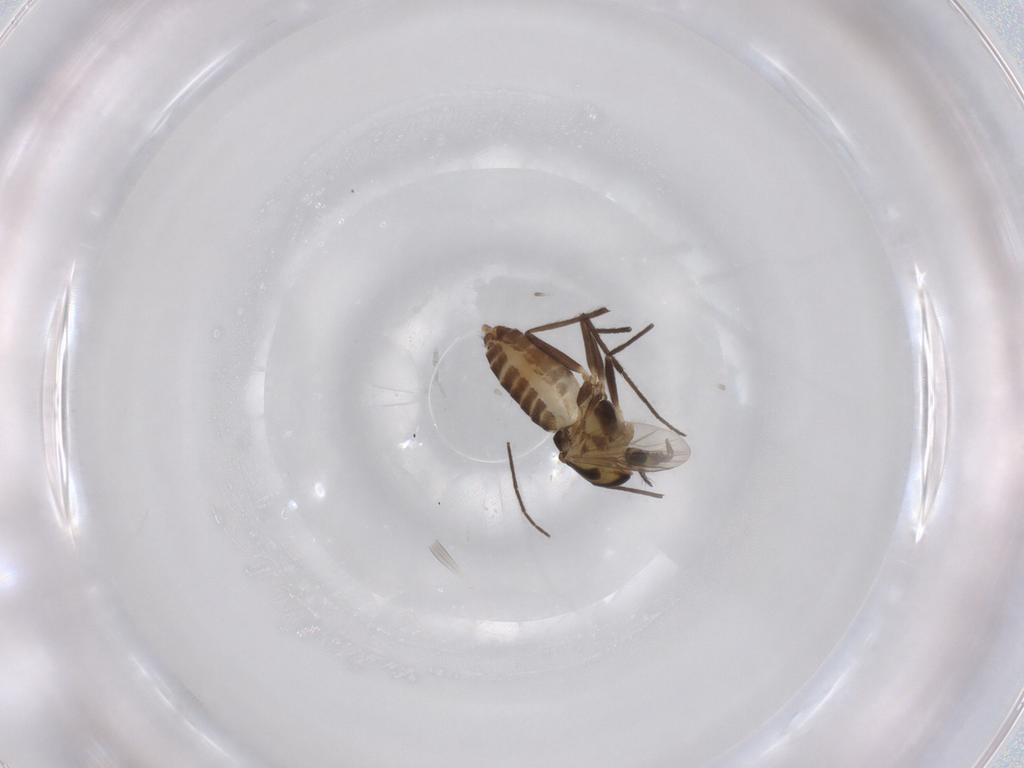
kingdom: Animalia
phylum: Arthropoda
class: Insecta
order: Diptera
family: Chironomidae
